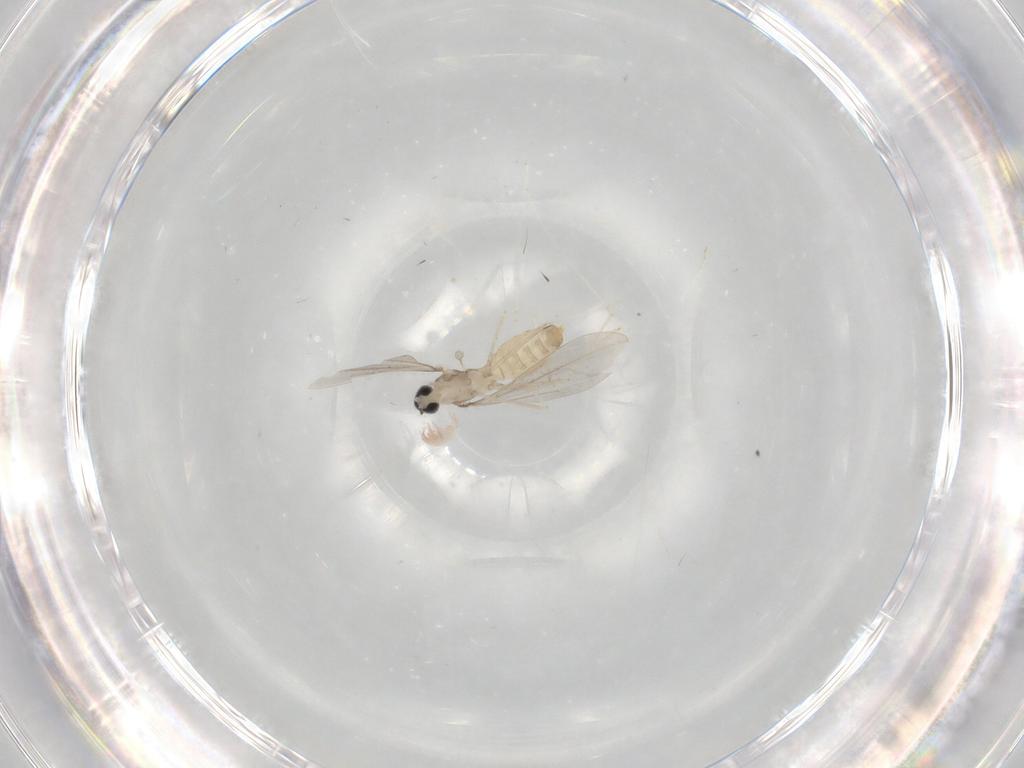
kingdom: Animalia
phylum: Arthropoda
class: Insecta
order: Diptera
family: Cecidomyiidae
